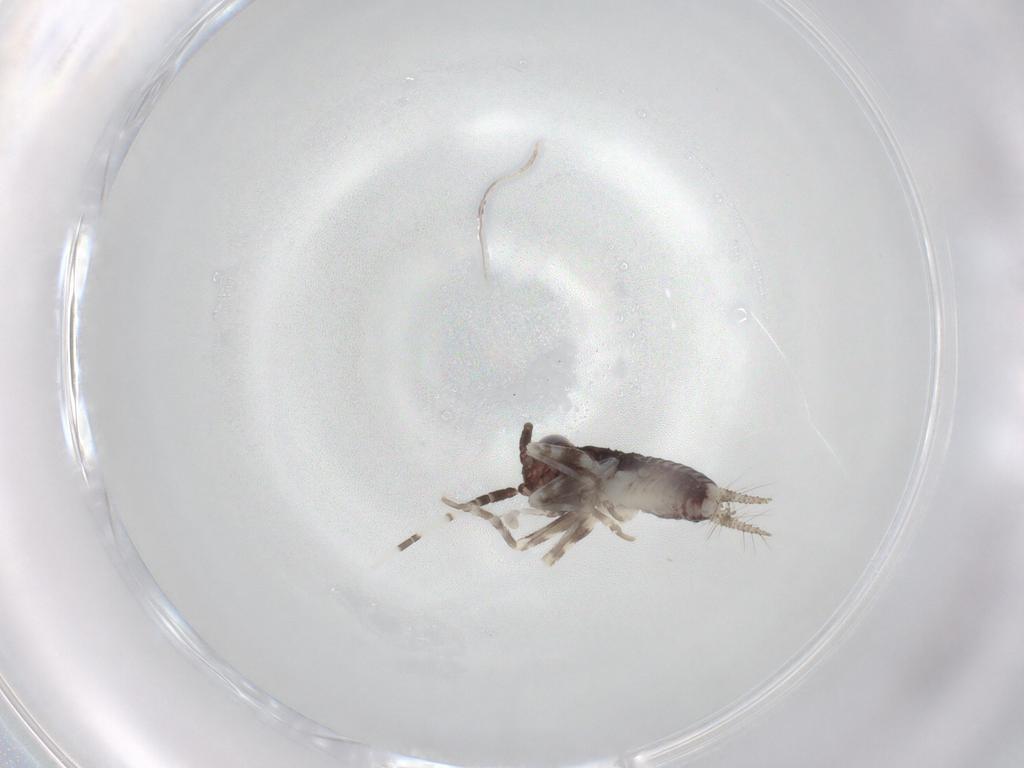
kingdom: Animalia
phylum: Arthropoda
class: Insecta
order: Orthoptera
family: Trigonidiidae
